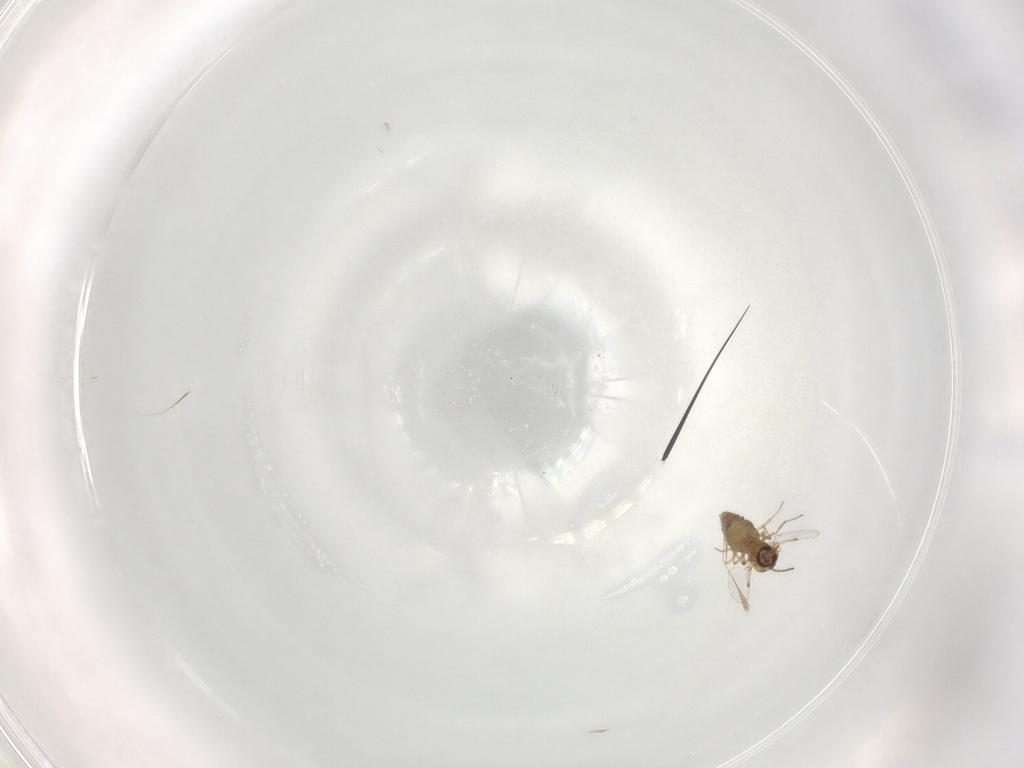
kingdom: Animalia
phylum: Arthropoda
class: Insecta
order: Diptera
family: Ceratopogonidae
